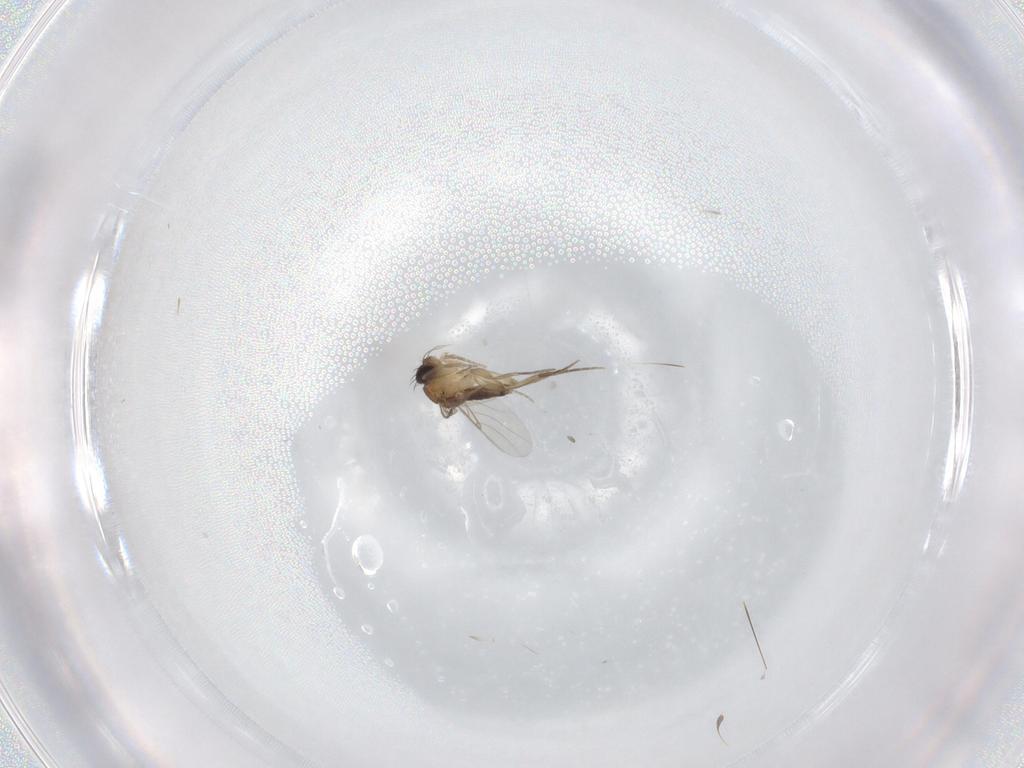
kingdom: Animalia
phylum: Arthropoda
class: Insecta
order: Diptera
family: Phoridae
